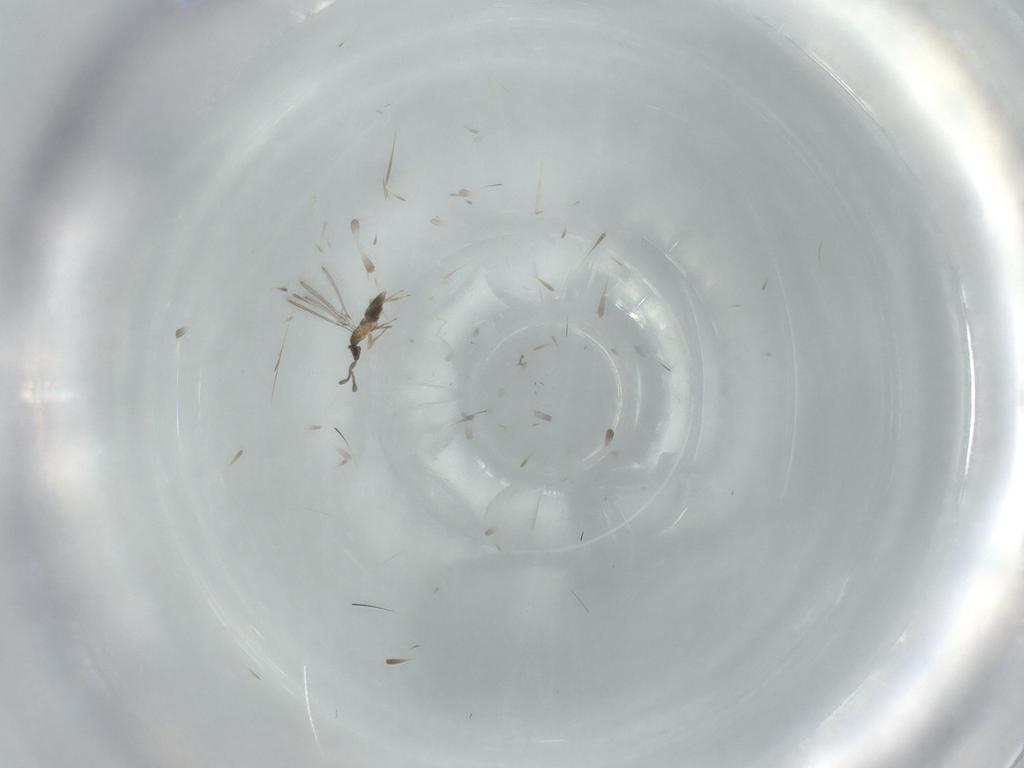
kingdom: Animalia
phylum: Arthropoda
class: Insecta
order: Hymenoptera
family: Mymaridae
